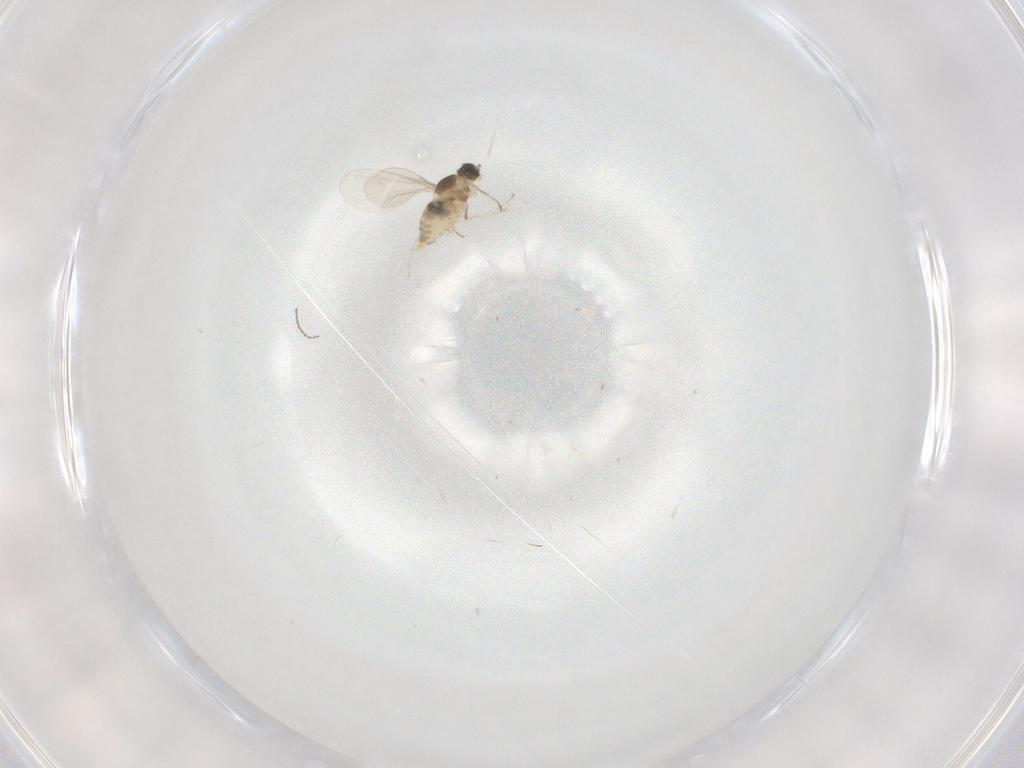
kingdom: Animalia
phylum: Arthropoda
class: Insecta
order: Diptera
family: Cecidomyiidae
